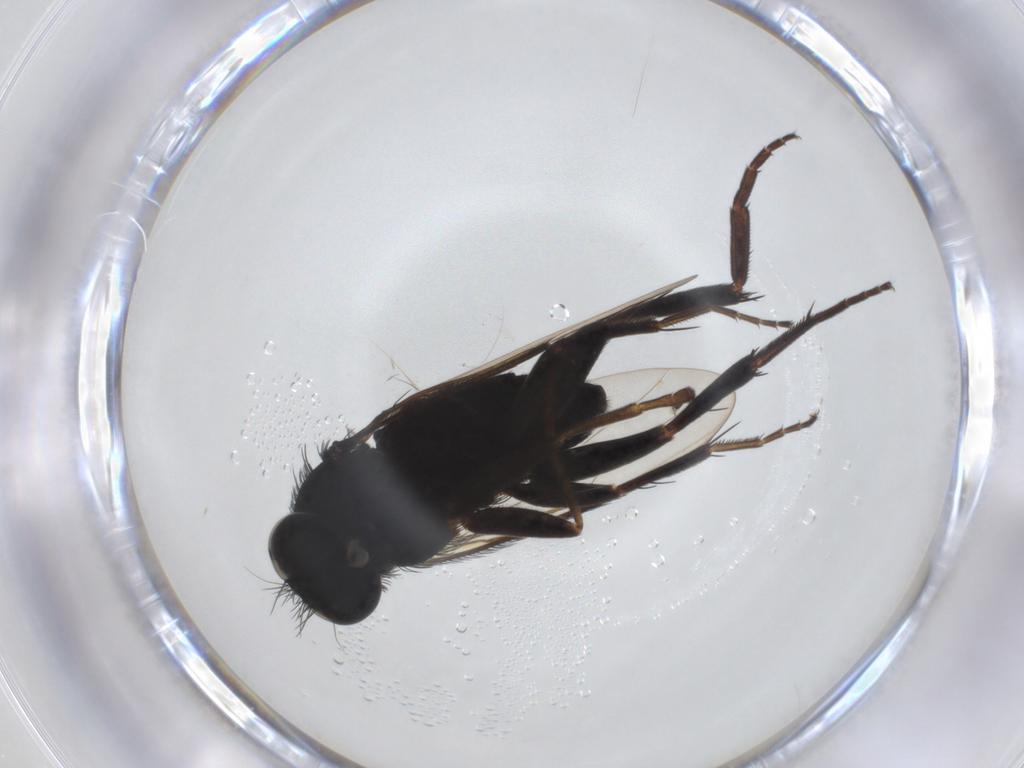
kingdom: Animalia
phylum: Arthropoda
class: Insecta
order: Diptera
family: Sciaridae
